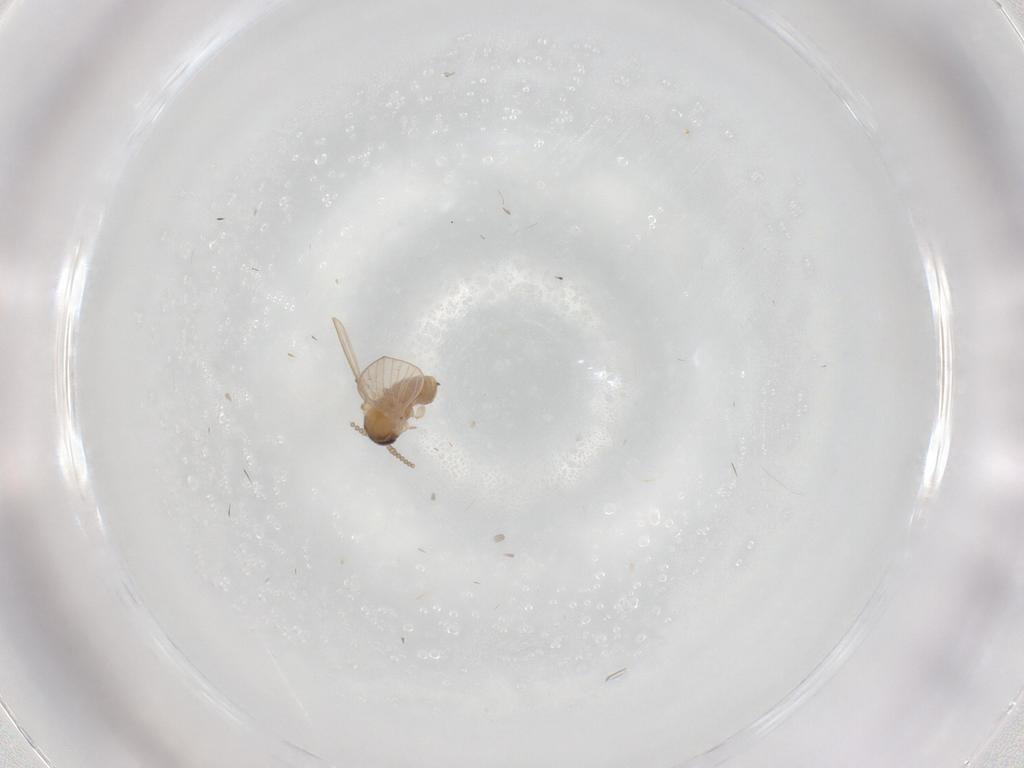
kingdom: Animalia
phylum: Arthropoda
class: Insecta
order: Diptera
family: Psychodidae
